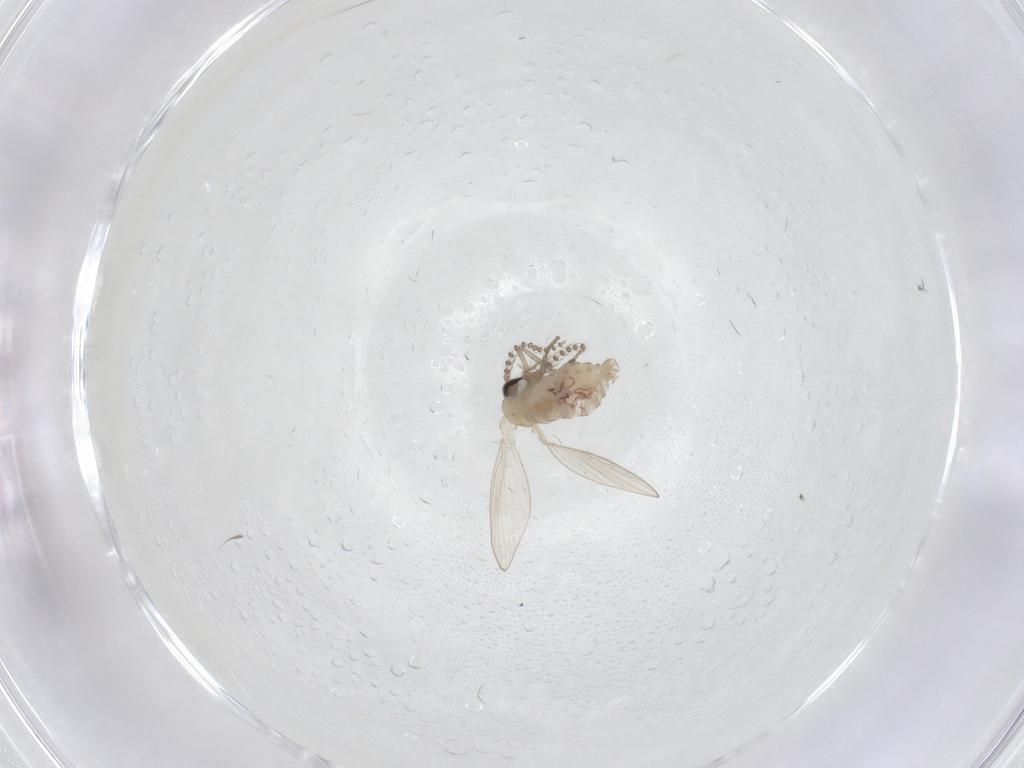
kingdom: Animalia
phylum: Arthropoda
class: Insecta
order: Diptera
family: Psychodidae
